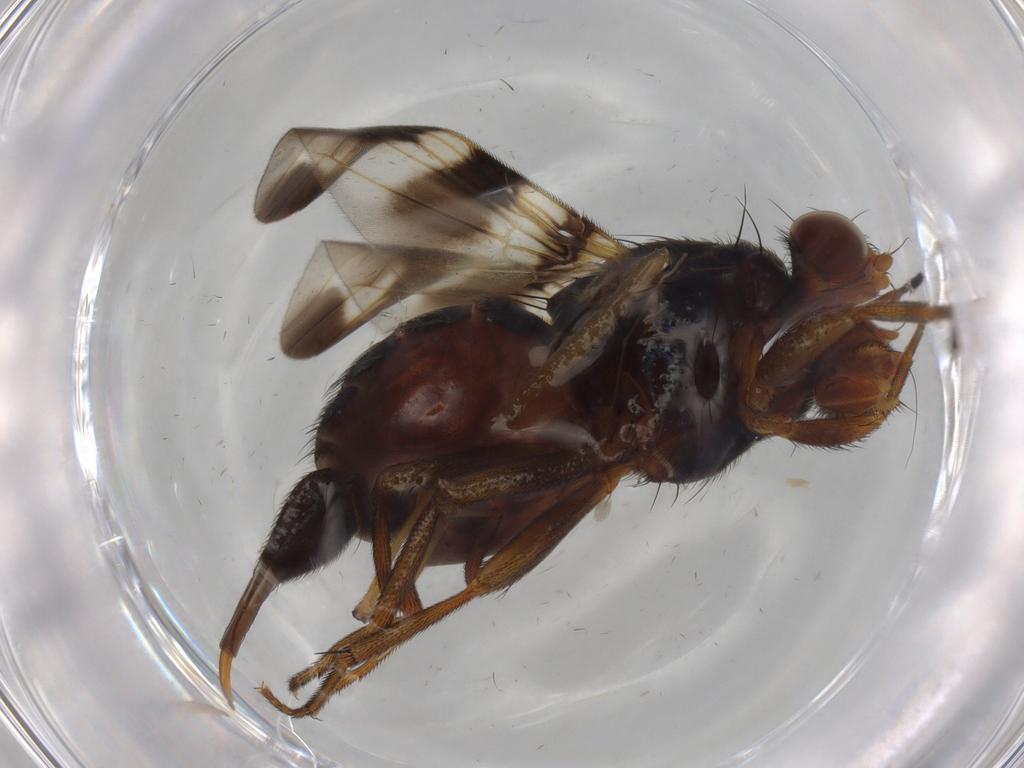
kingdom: Animalia
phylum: Arthropoda
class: Insecta
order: Diptera
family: Ulidiidae
